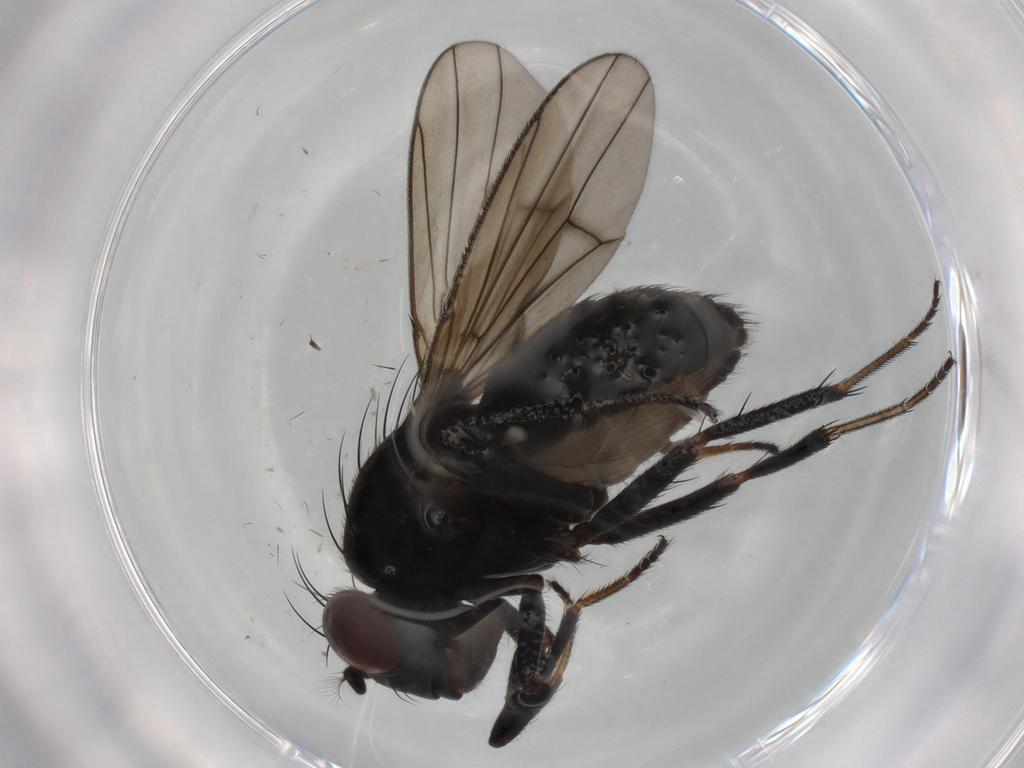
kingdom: Animalia
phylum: Arthropoda
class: Insecta
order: Diptera
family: Ephydridae
